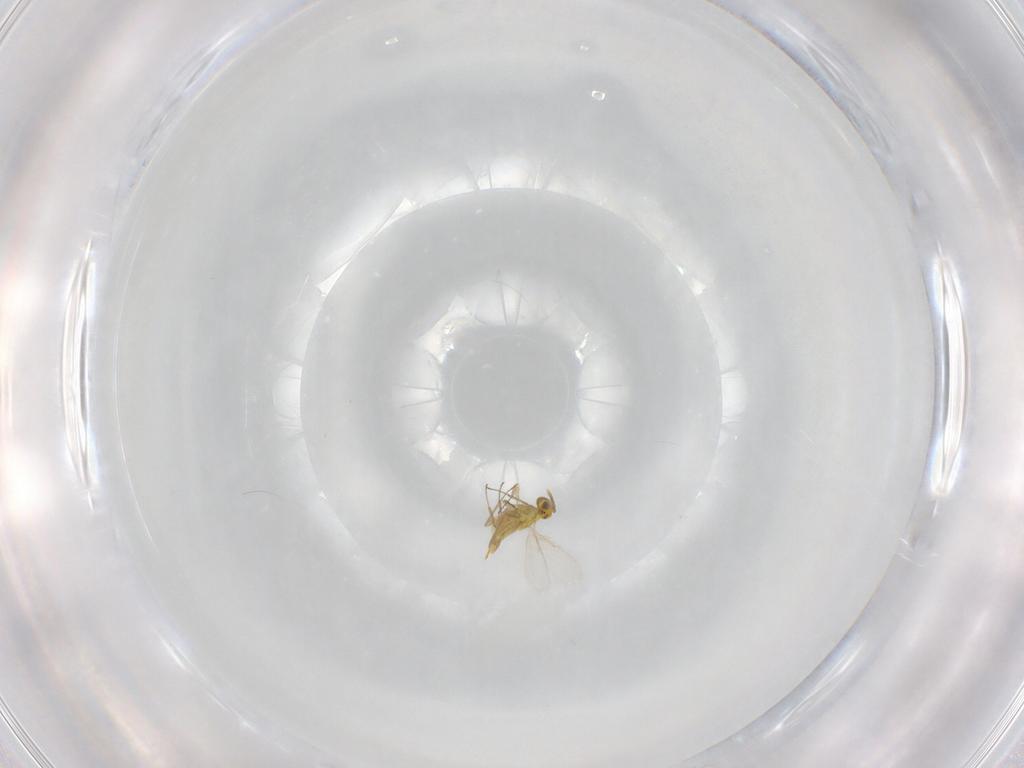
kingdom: Animalia
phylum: Arthropoda
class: Insecta
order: Hymenoptera
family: Aphelinidae
